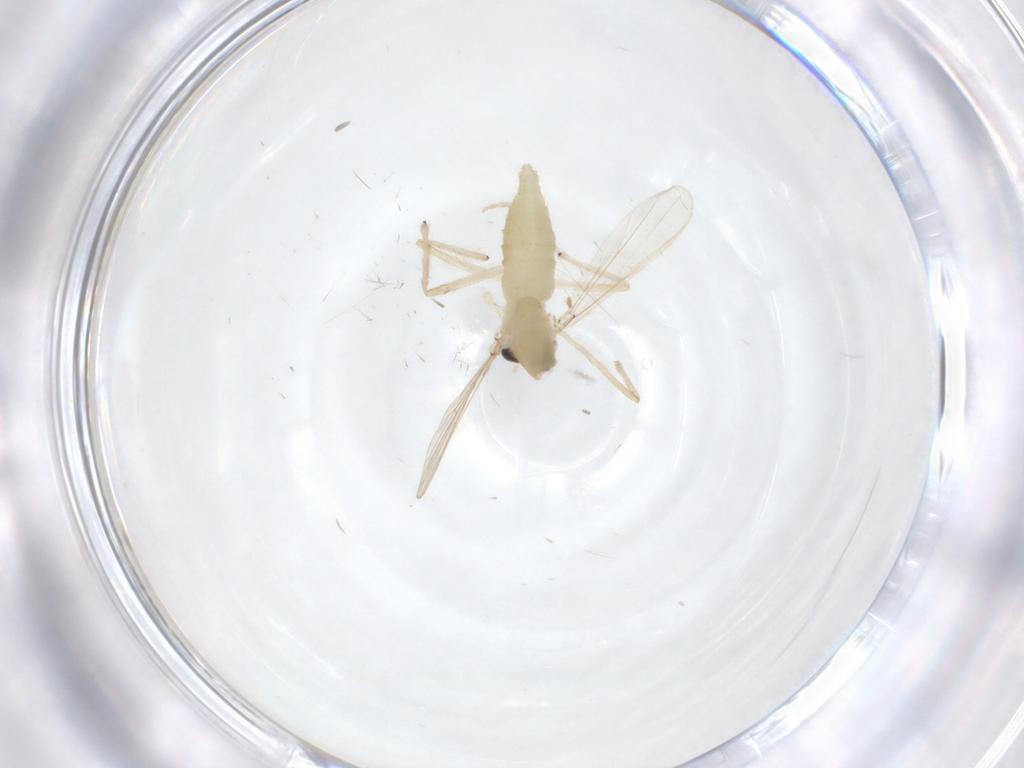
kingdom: Animalia
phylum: Arthropoda
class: Insecta
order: Diptera
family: Chironomidae
